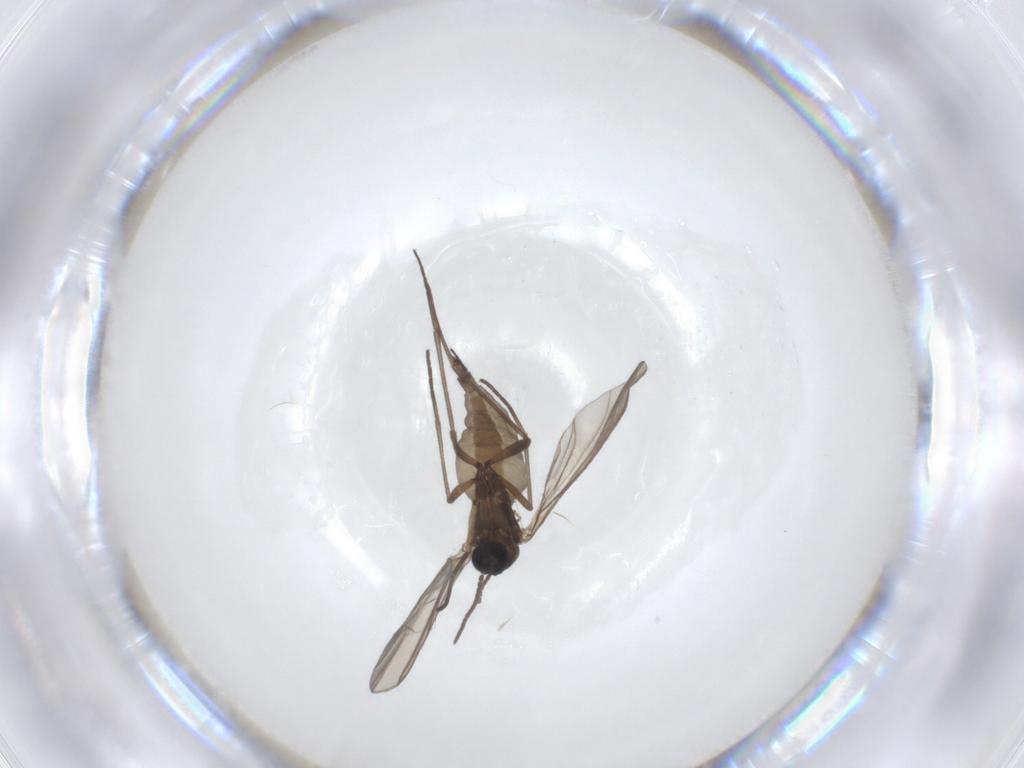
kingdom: Animalia
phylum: Arthropoda
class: Insecta
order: Diptera
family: Sciaridae
